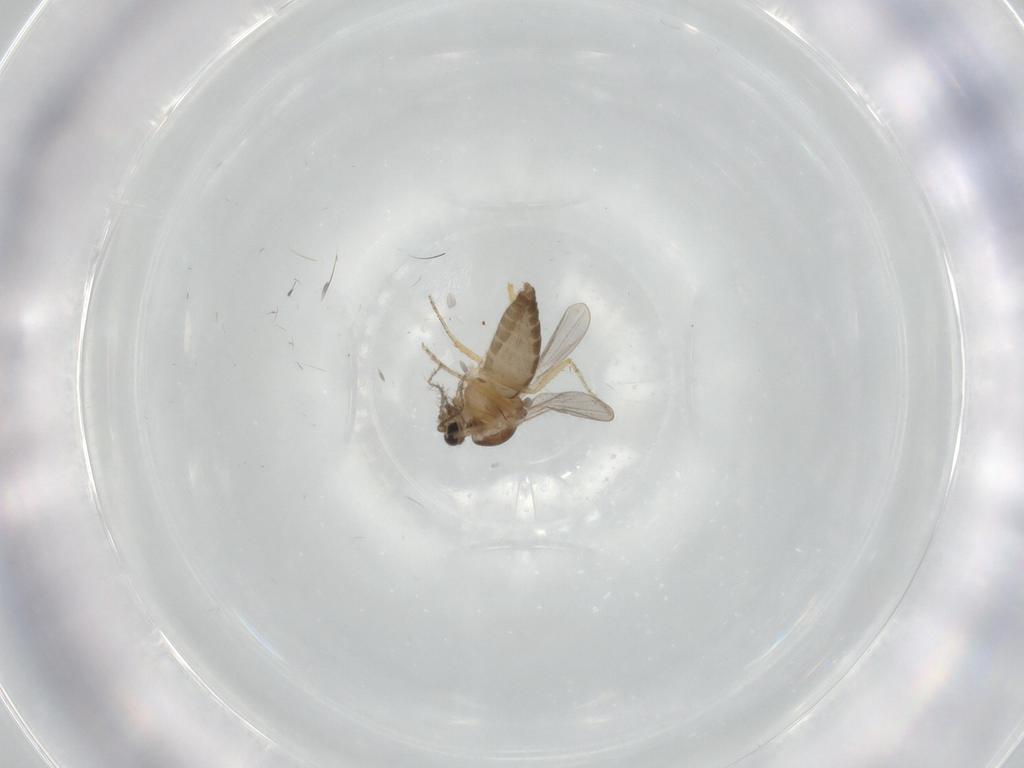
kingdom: Animalia
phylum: Arthropoda
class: Insecta
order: Diptera
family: Ceratopogonidae
